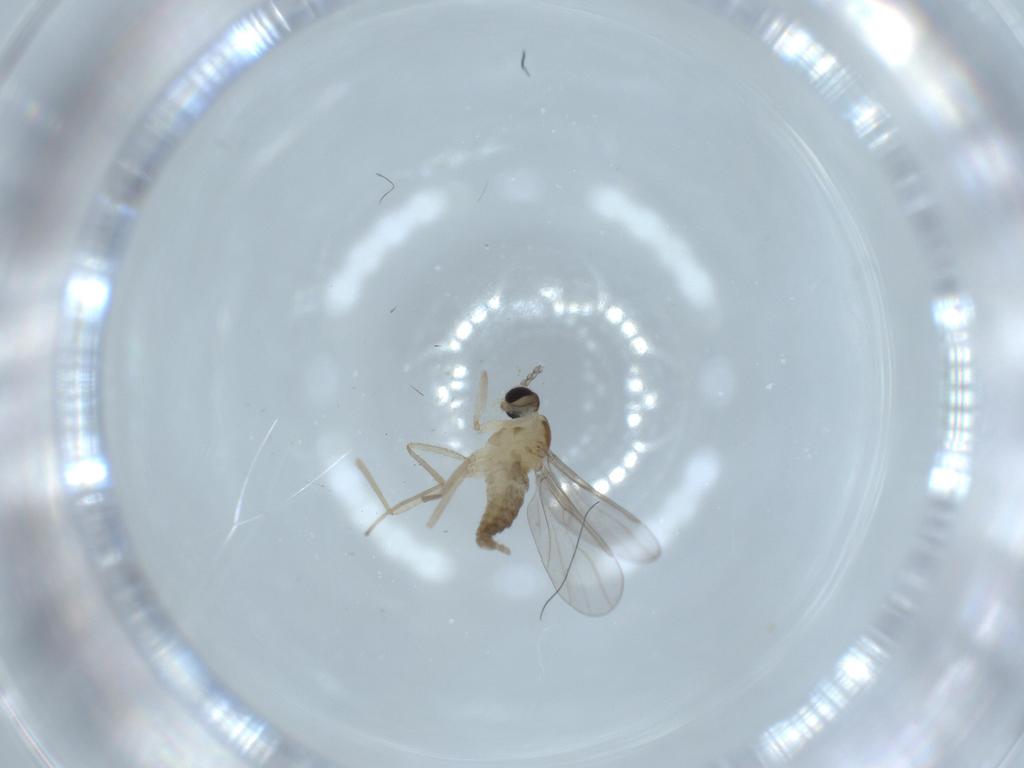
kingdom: Animalia
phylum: Arthropoda
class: Insecta
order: Diptera
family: Cecidomyiidae
